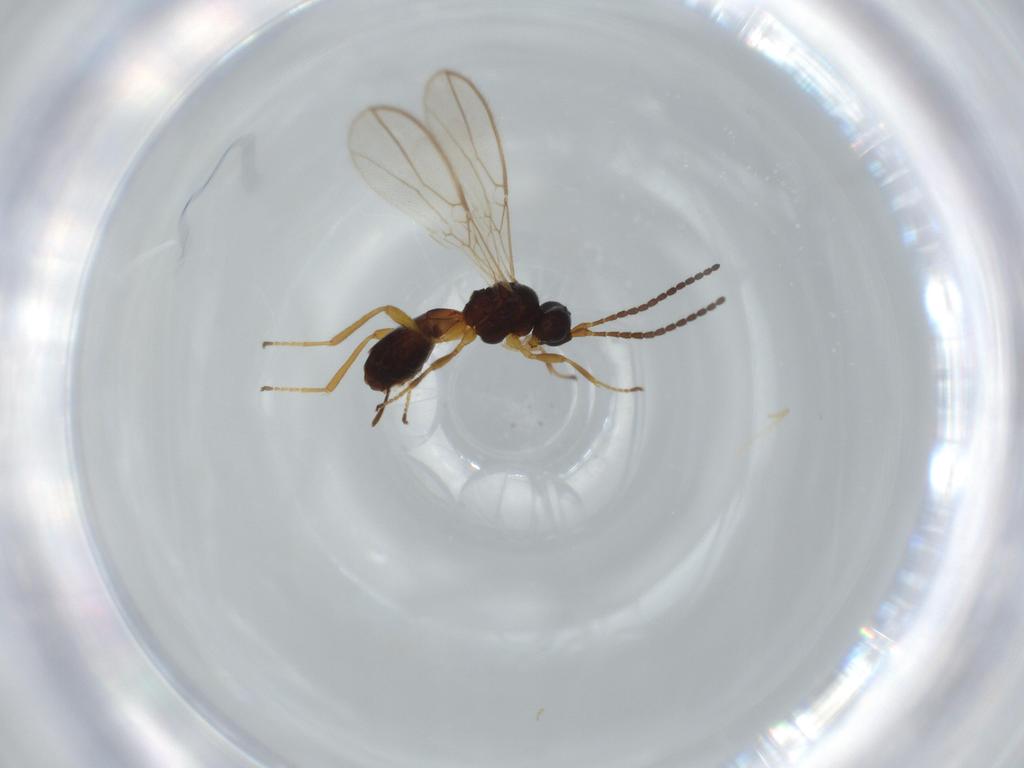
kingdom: Animalia
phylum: Arthropoda
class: Insecta
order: Hymenoptera
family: Braconidae
